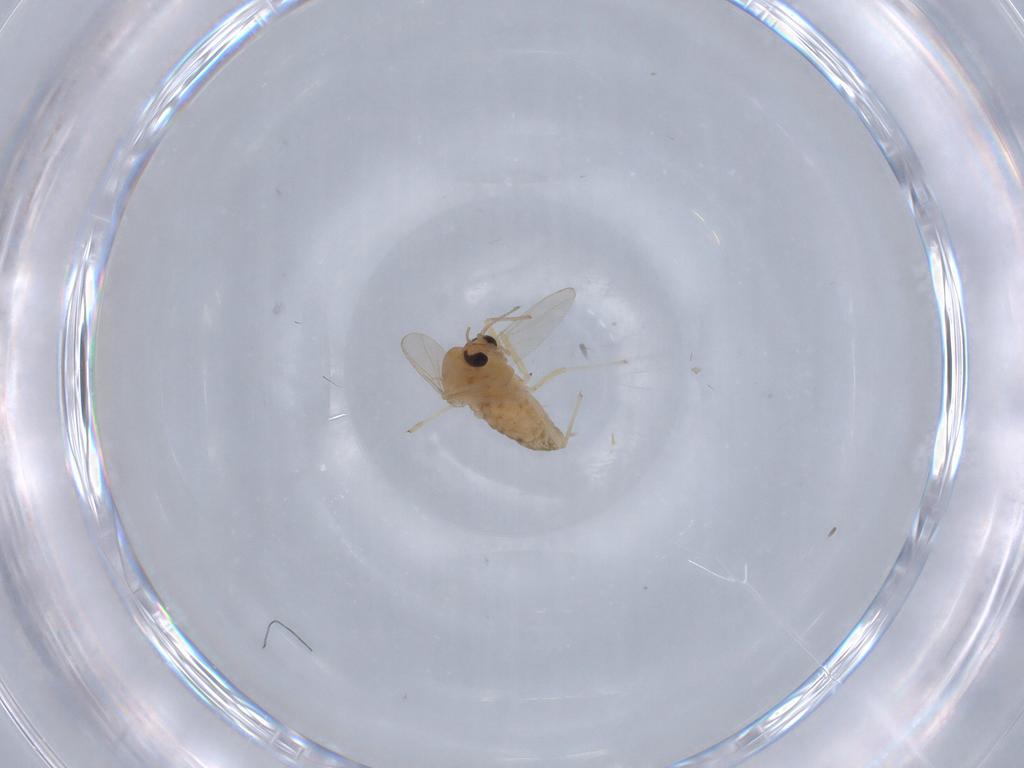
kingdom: Animalia
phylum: Arthropoda
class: Insecta
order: Diptera
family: Chironomidae
